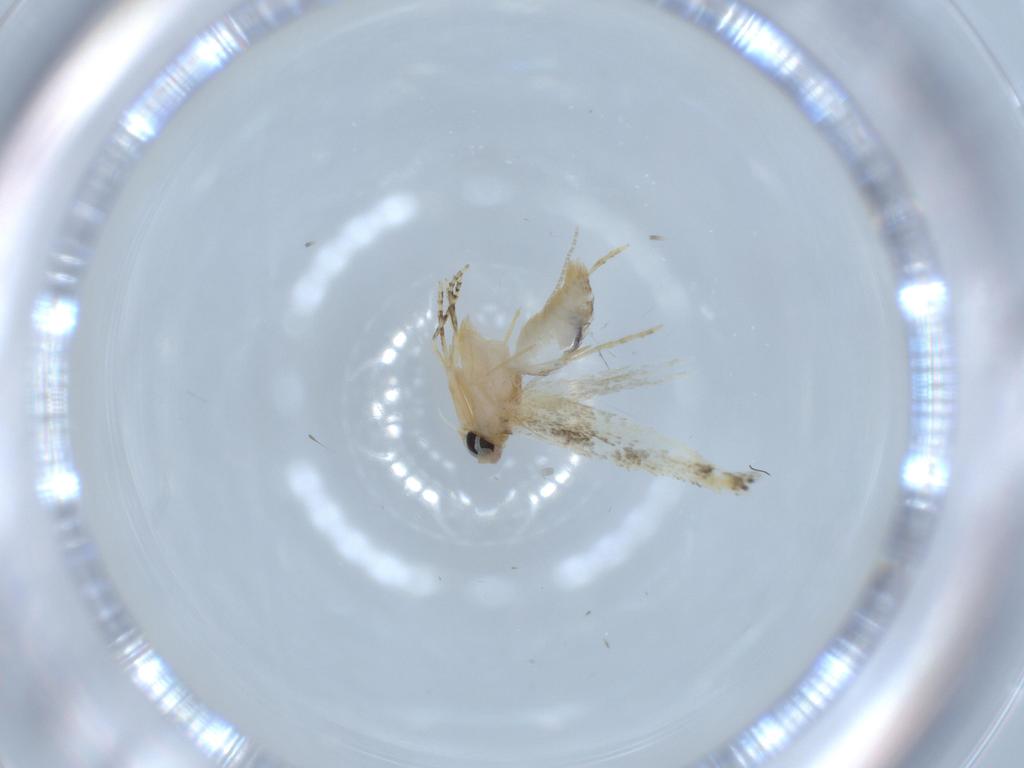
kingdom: Animalia
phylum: Arthropoda
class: Insecta
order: Lepidoptera
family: Bucculatricidae
